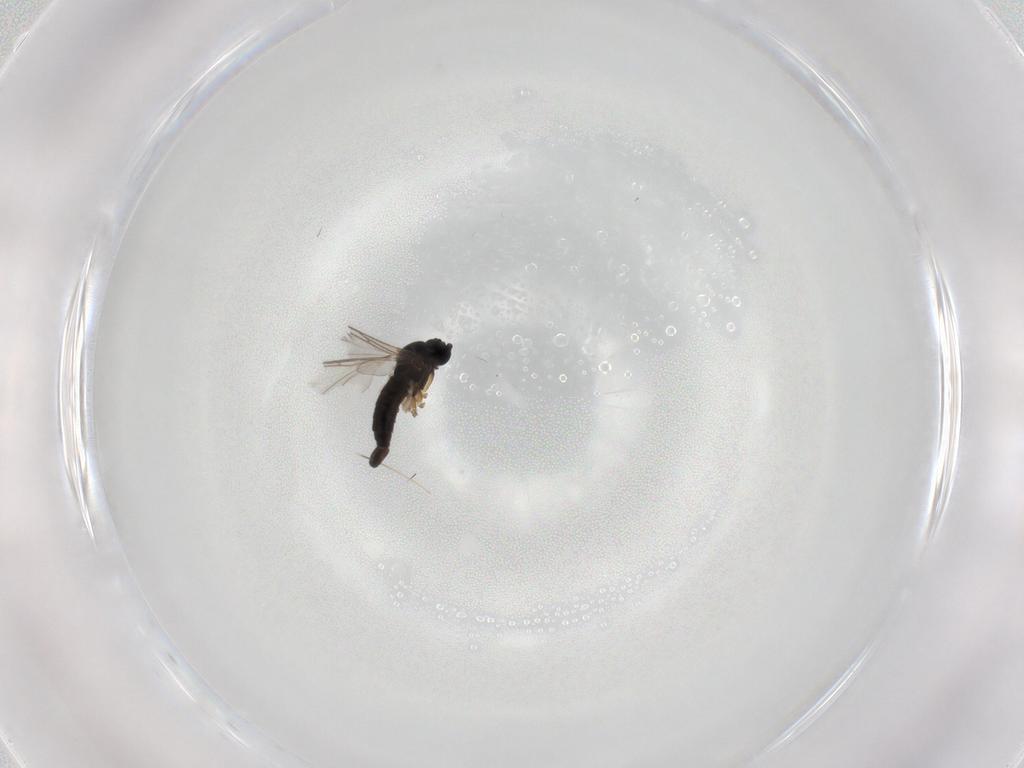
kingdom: Animalia
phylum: Arthropoda
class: Insecta
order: Diptera
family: Sciaridae
